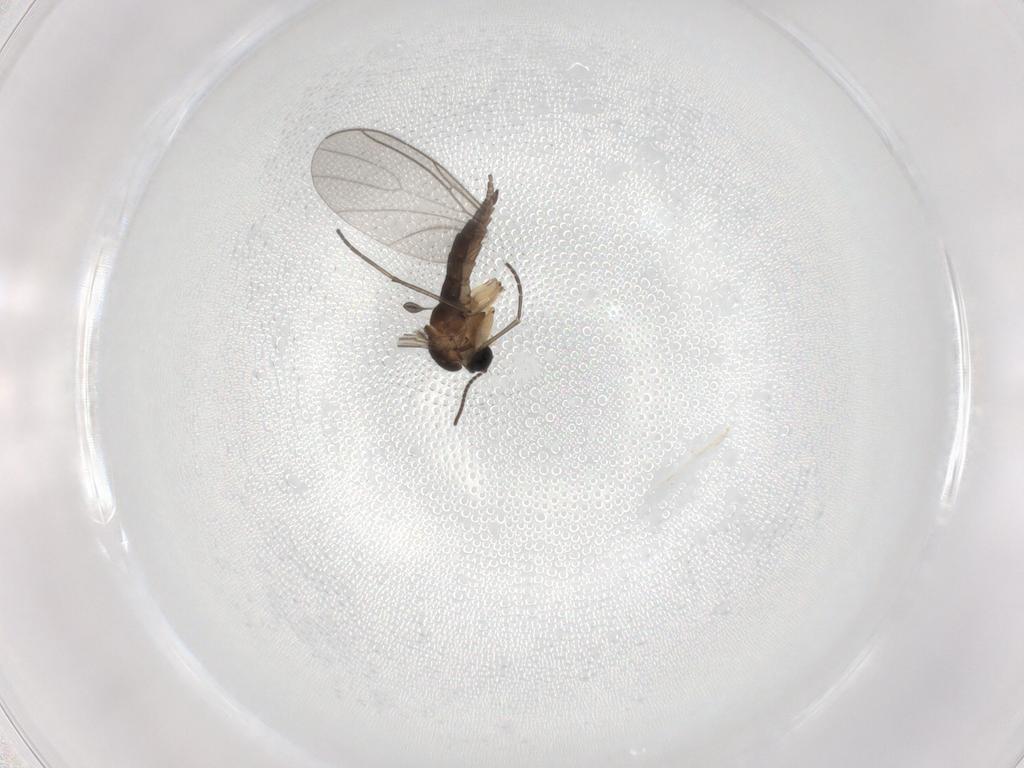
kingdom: Animalia
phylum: Arthropoda
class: Insecta
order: Diptera
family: Sciaridae
